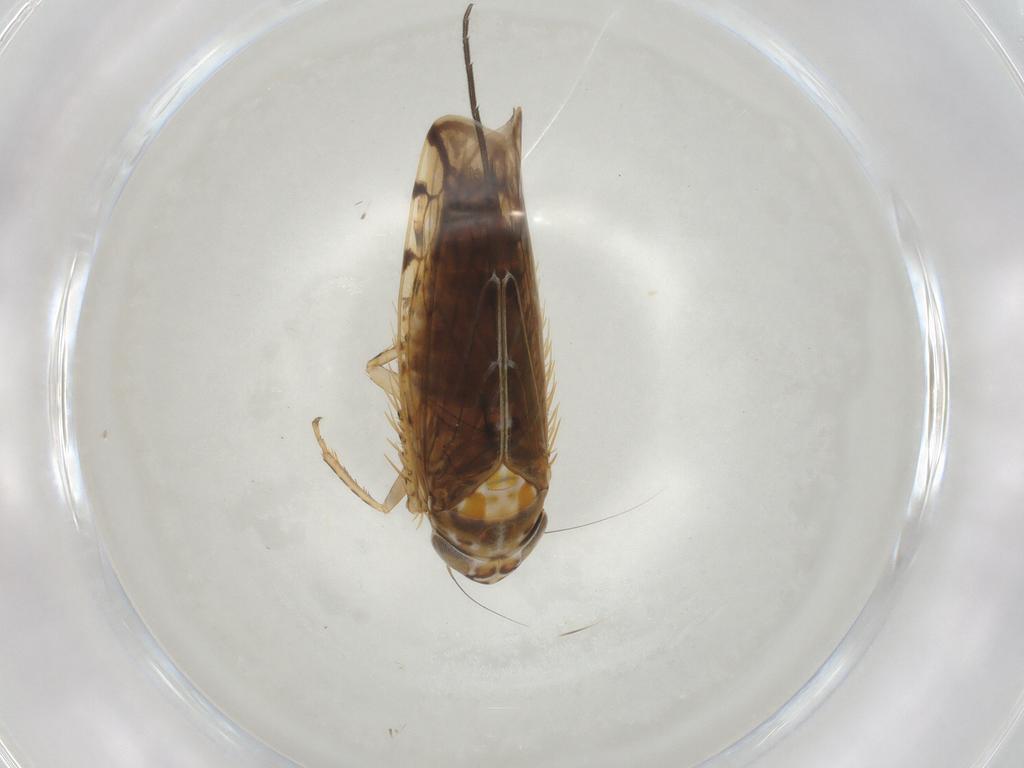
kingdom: Animalia
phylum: Arthropoda
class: Insecta
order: Hemiptera
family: Cicadellidae
